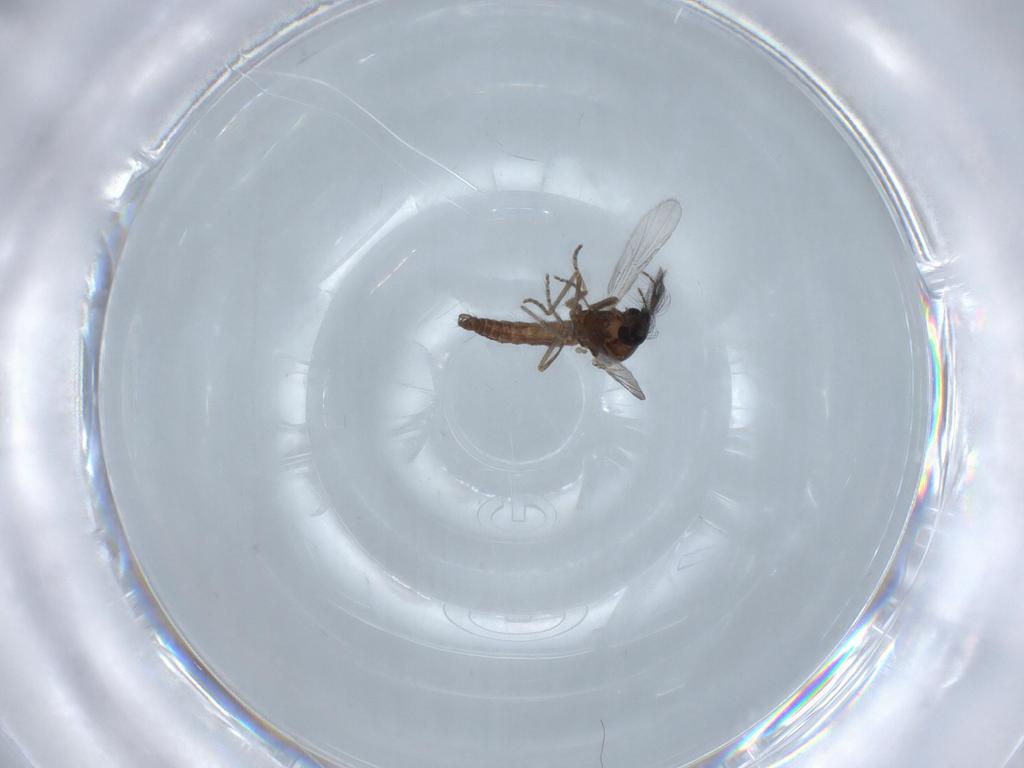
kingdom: Animalia
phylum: Arthropoda
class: Insecta
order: Diptera
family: Ceratopogonidae
